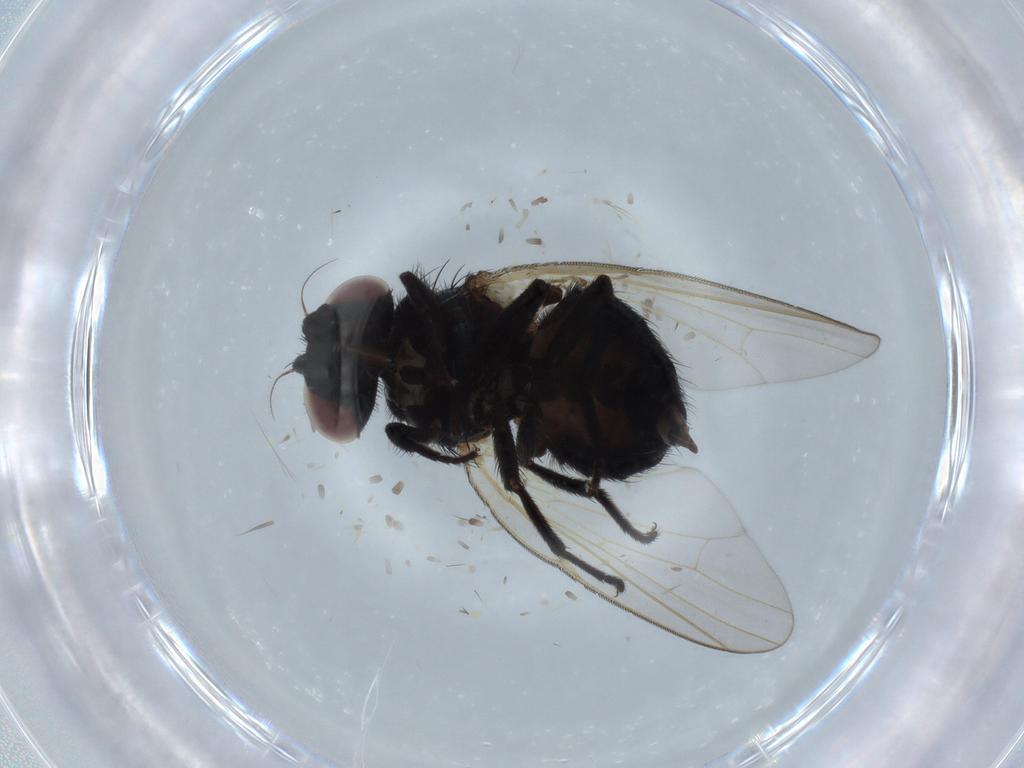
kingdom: Animalia
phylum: Arthropoda
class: Insecta
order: Diptera
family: Lonchaeidae
